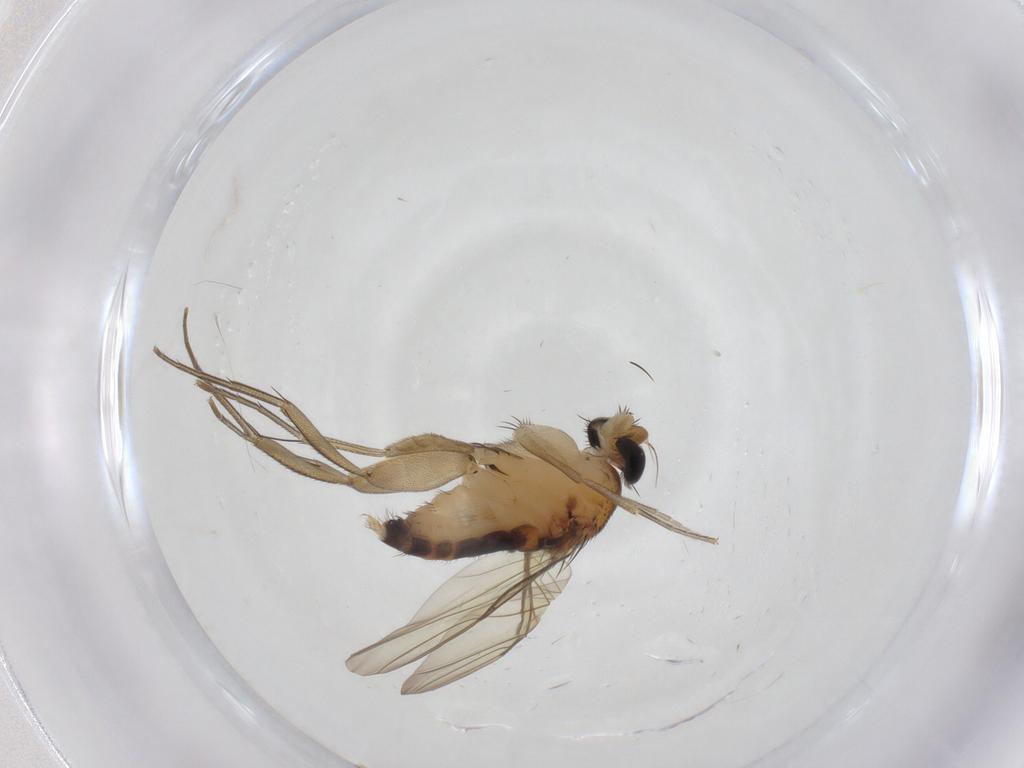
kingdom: Animalia
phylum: Arthropoda
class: Insecta
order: Diptera
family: Phoridae
